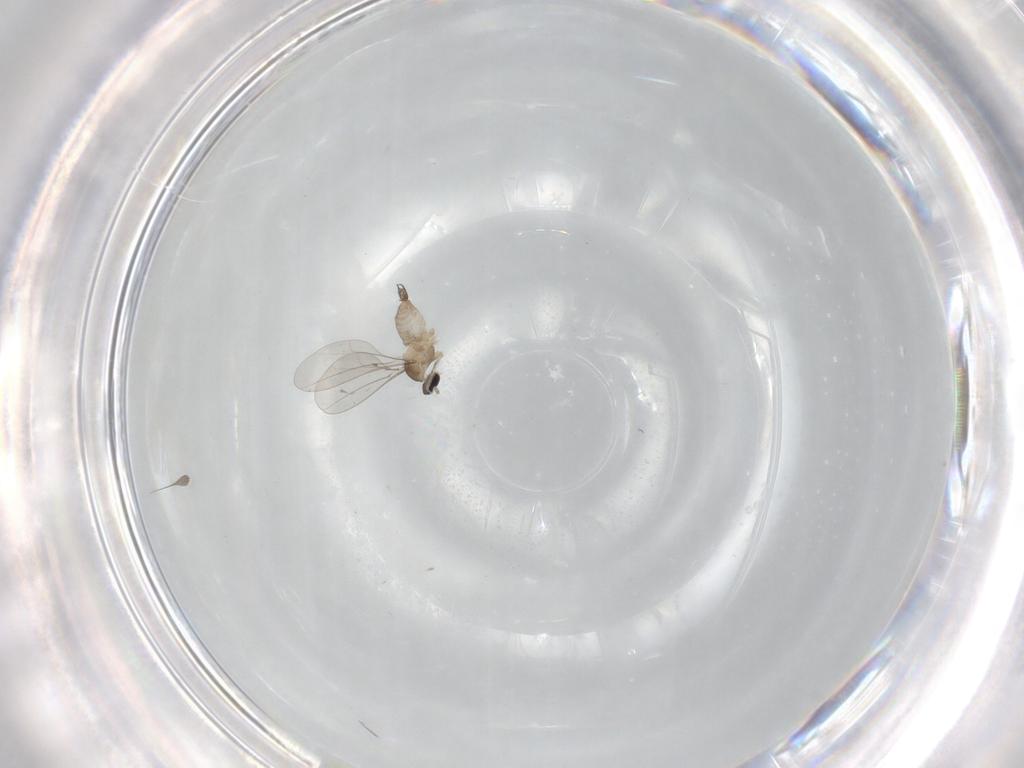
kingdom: Animalia
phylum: Arthropoda
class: Insecta
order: Diptera
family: Cecidomyiidae
